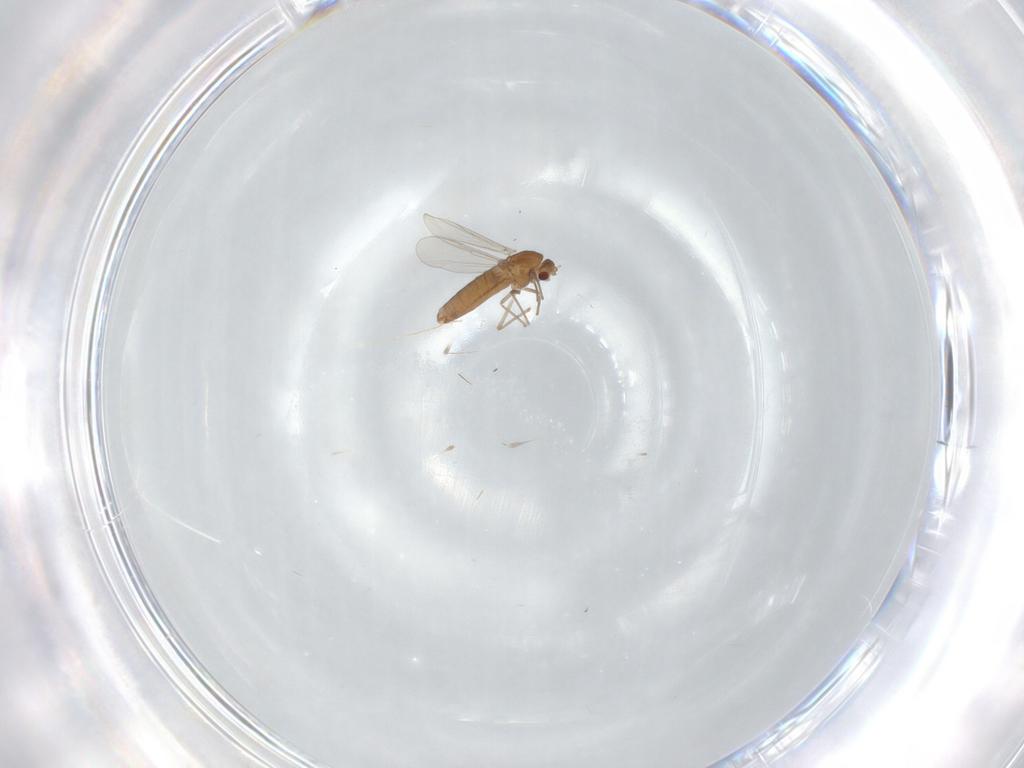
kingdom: Animalia
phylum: Arthropoda
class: Insecta
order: Diptera
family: Chironomidae
